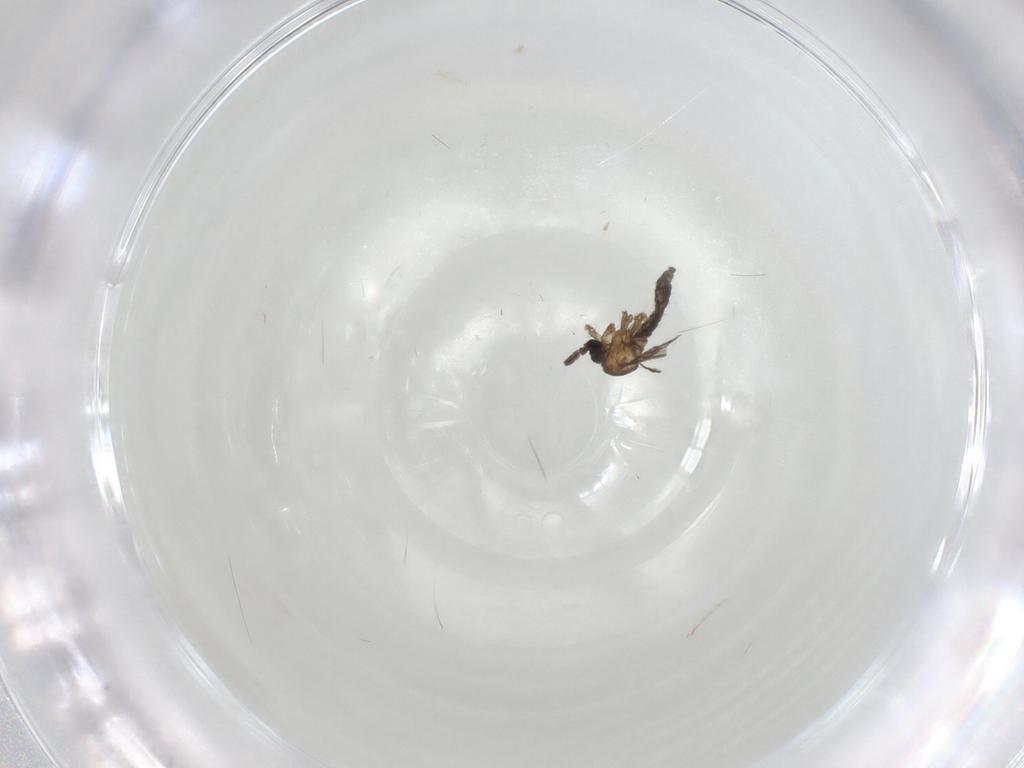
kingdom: Animalia
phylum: Arthropoda
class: Insecta
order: Diptera
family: Sciaridae
